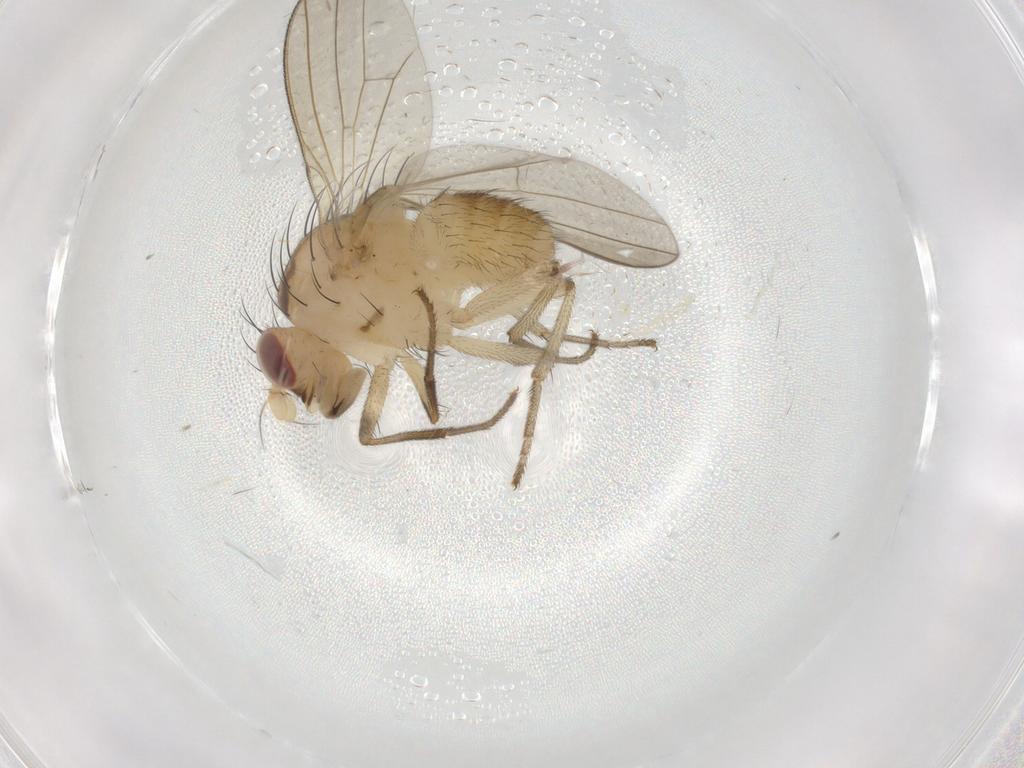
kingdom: Animalia
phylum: Arthropoda
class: Insecta
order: Diptera
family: Lauxaniidae
